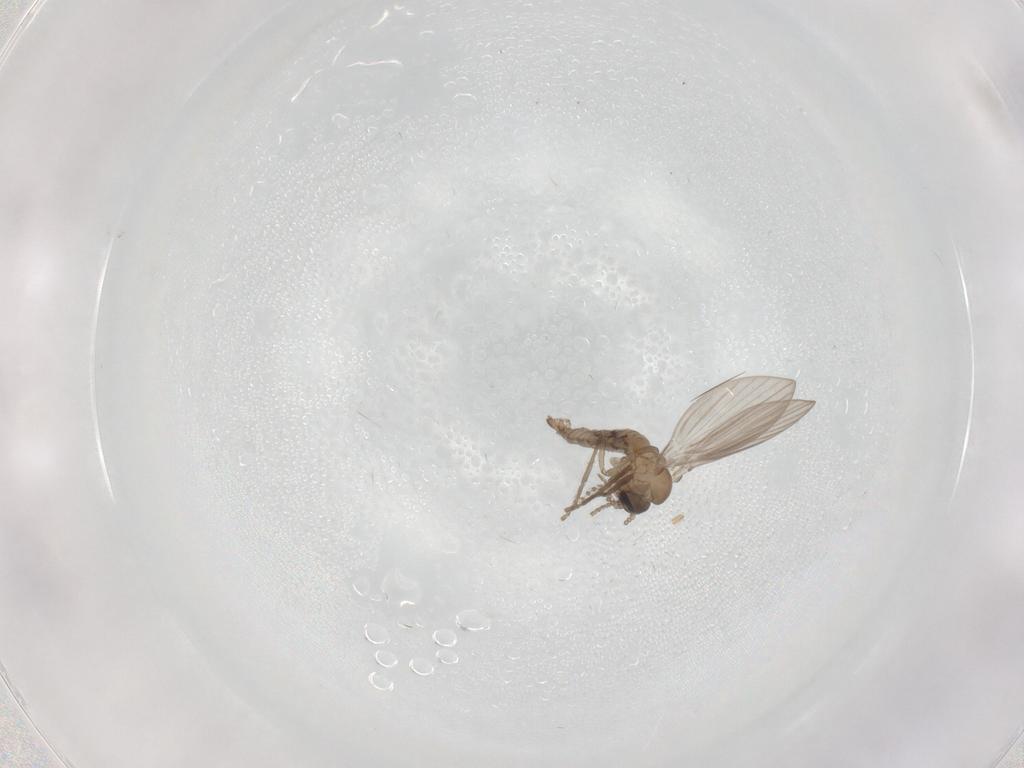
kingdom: Animalia
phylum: Arthropoda
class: Insecta
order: Diptera
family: Psychodidae
